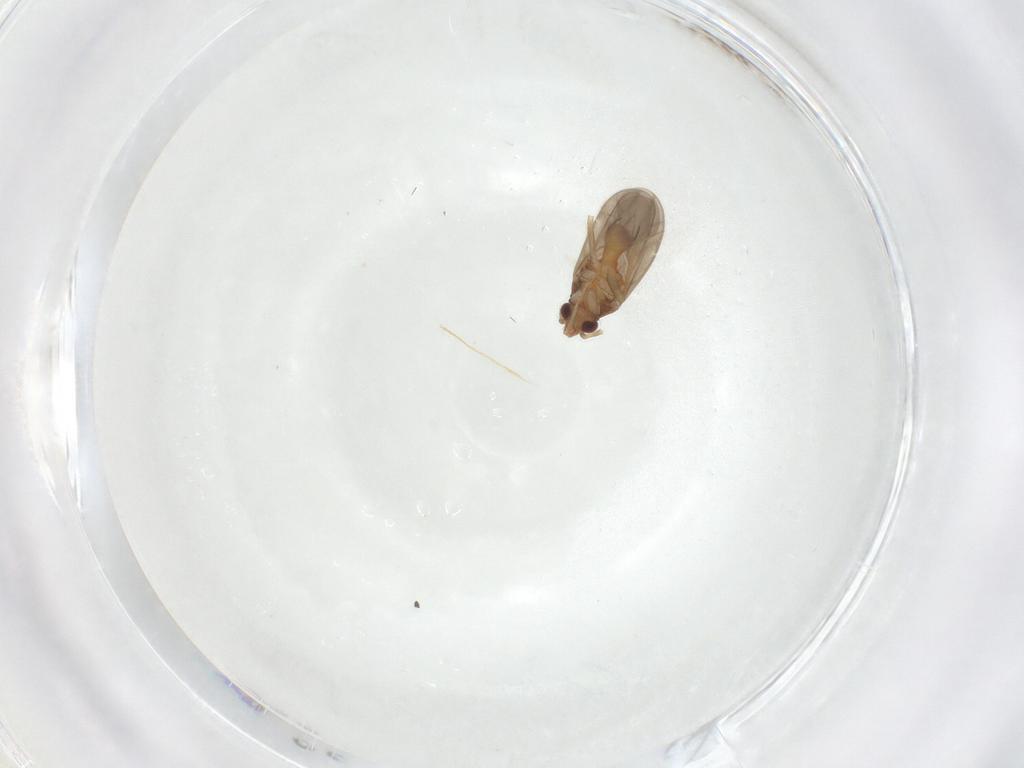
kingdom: Animalia
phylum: Arthropoda
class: Insecta
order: Hemiptera
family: Ceratocombidae
